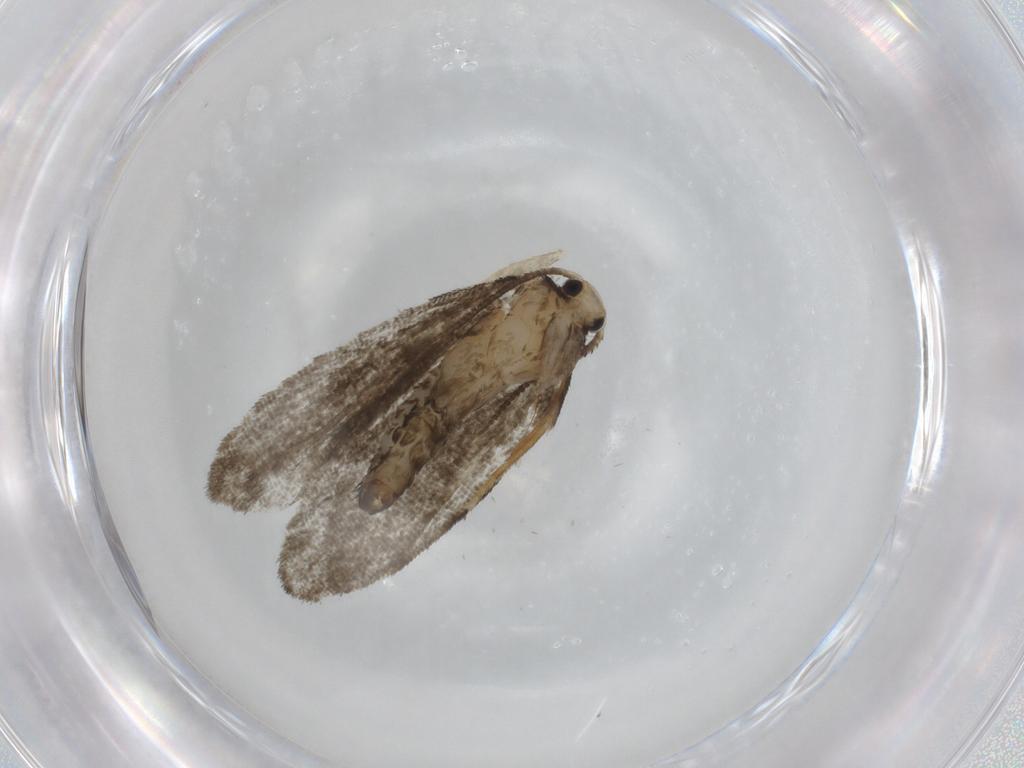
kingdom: Animalia
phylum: Arthropoda
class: Insecta
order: Lepidoptera
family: Psychidae
